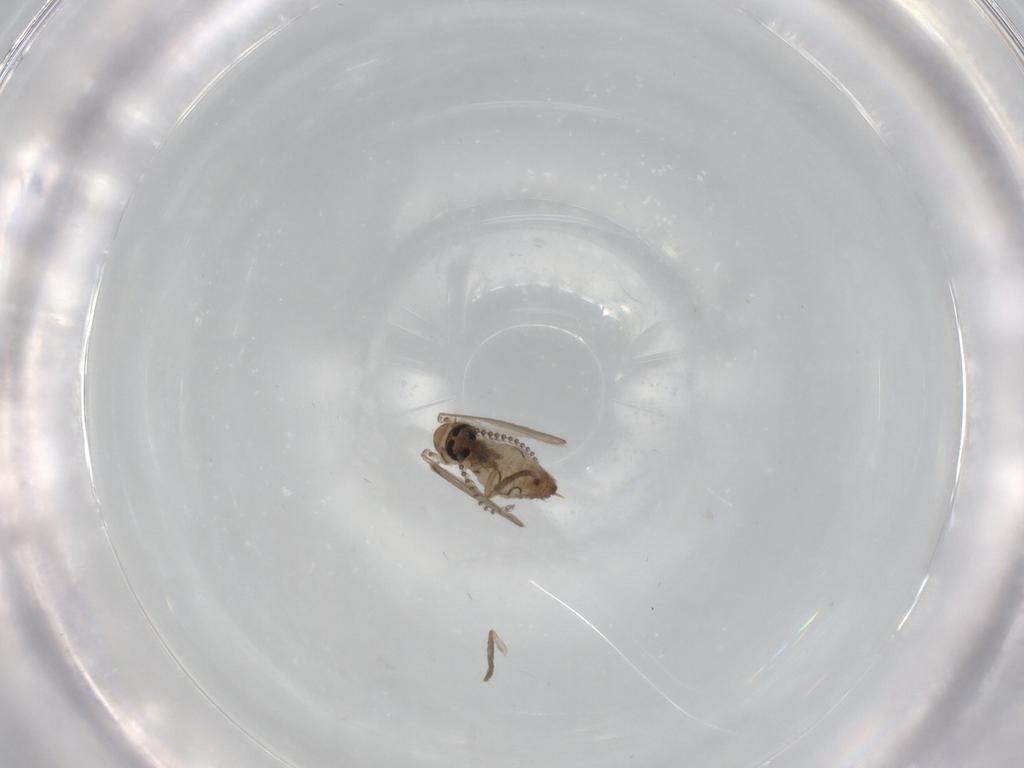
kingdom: Animalia
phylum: Arthropoda
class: Insecta
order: Diptera
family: Psychodidae
